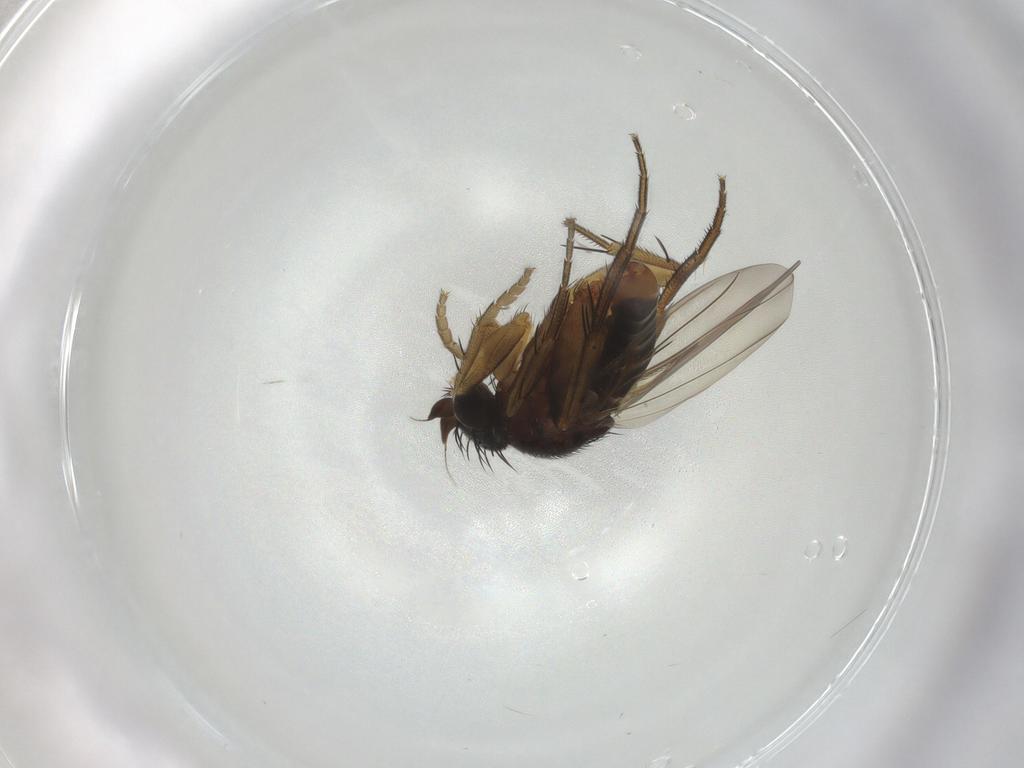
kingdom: Animalia
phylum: Arthropoda
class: Insecta
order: Diptera
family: Phoridae
